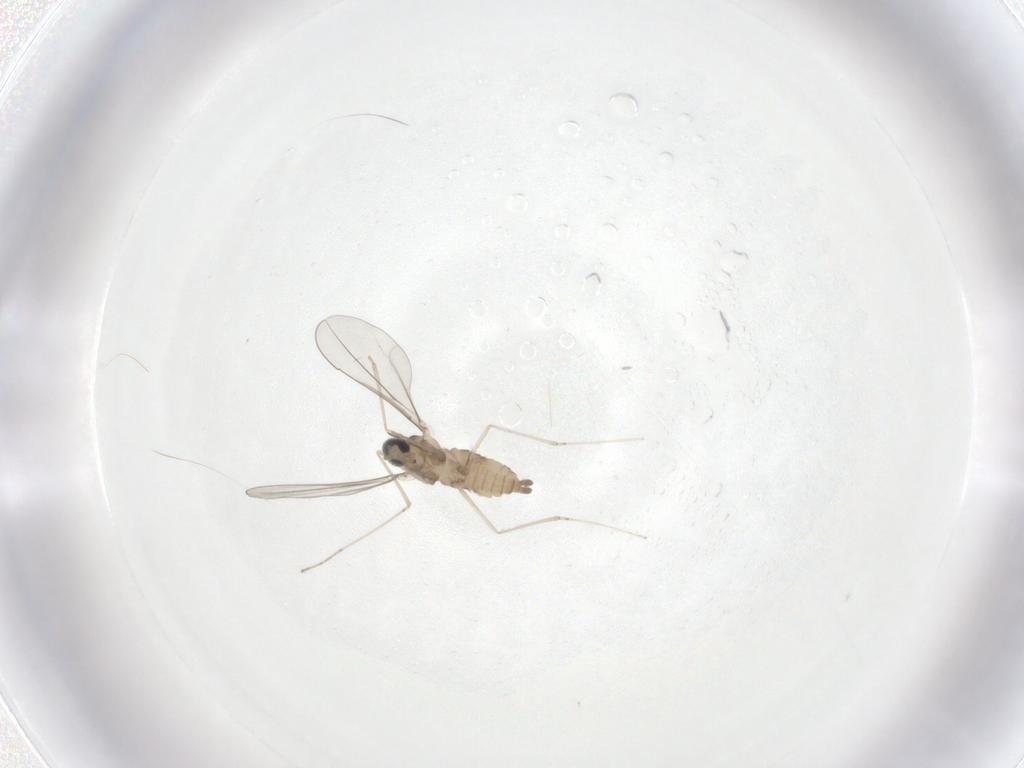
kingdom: Animalia
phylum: Arthropoda
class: Insecta
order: Diptera
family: Cecidomyiidae
